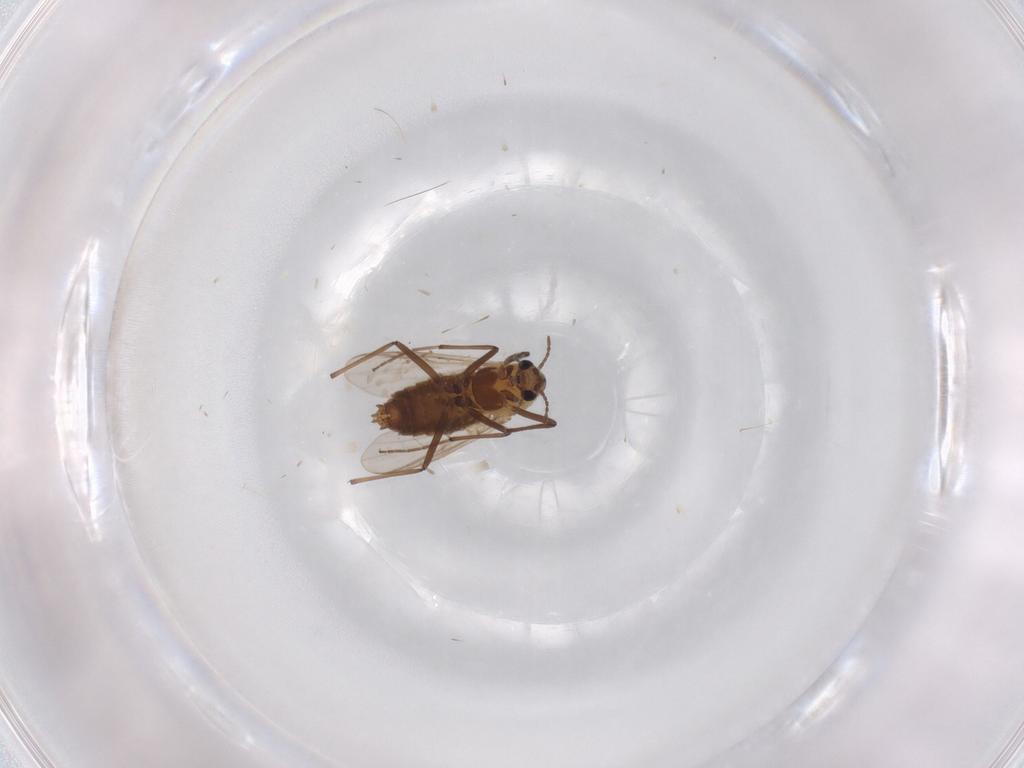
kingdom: Animalia
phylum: Arthropoda
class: Insecta
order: Diptera
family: Chironomidae
